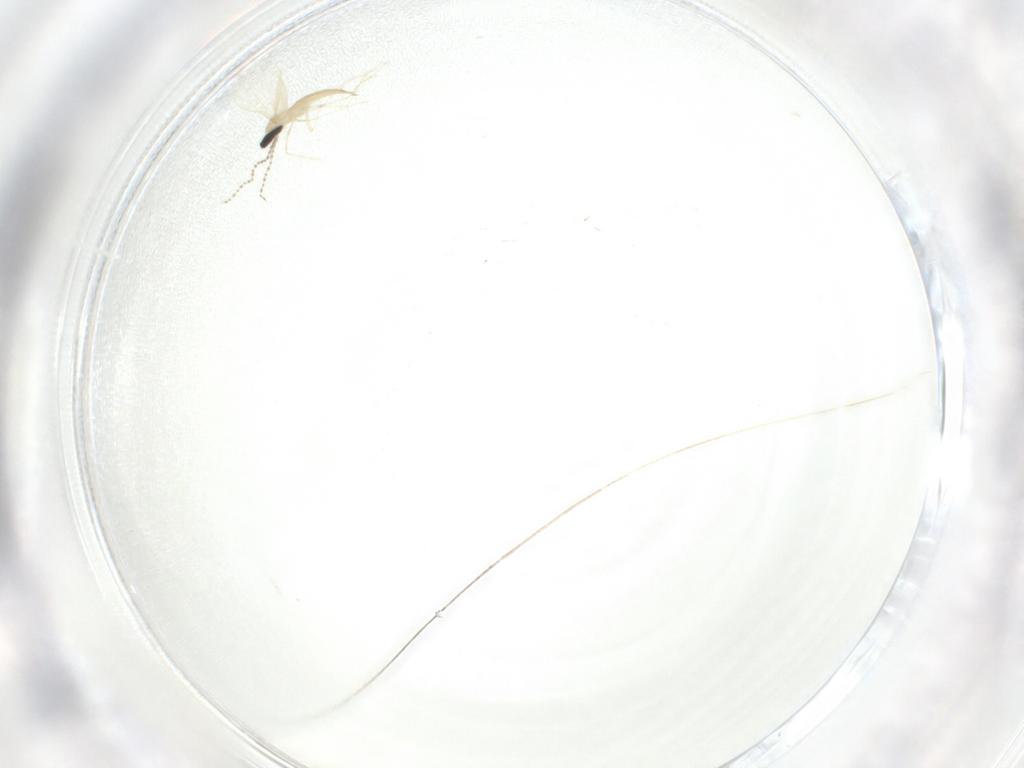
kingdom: Animalia
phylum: Arthropoda
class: Insecta
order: Diptera
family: Cecidomyiidae
